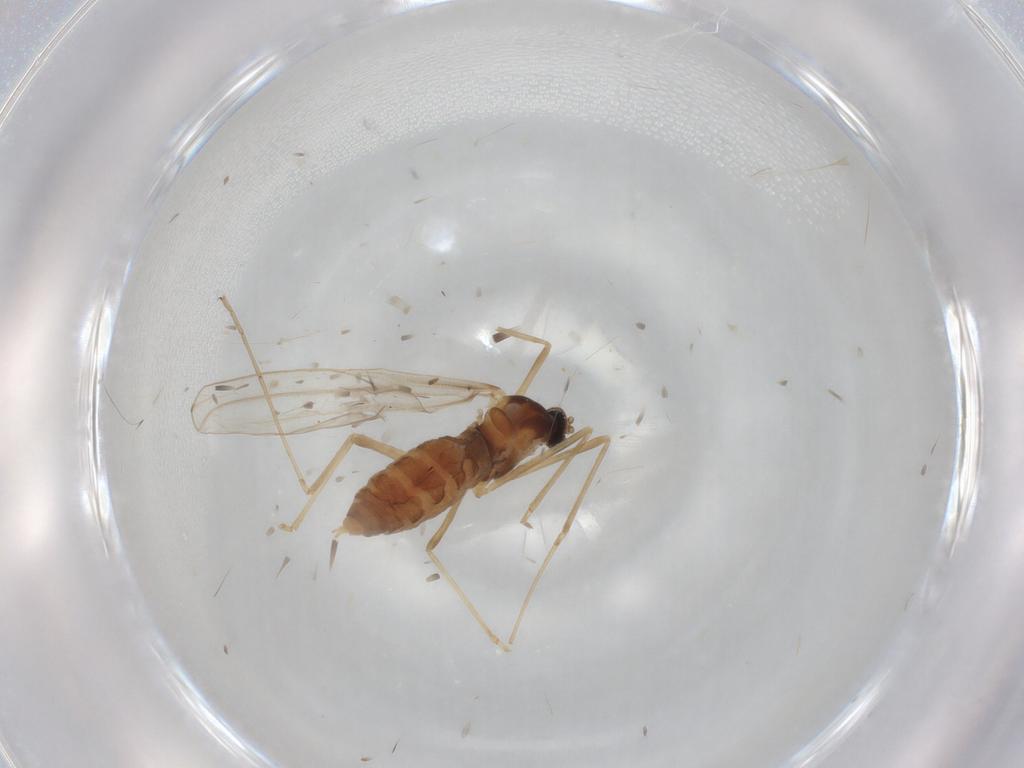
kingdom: Animalia
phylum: Arthropoda
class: Insecta
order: Diptera
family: Cecidomyiidae
